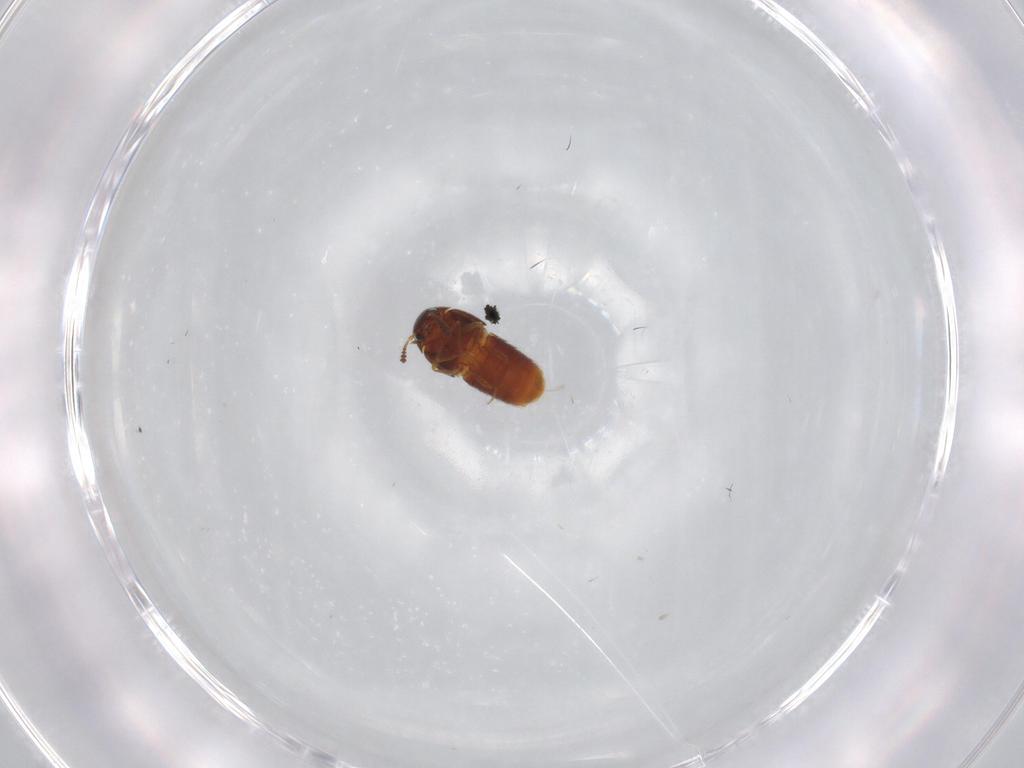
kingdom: Animalia
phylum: Arthropoda
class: Insecta
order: Coleoptera
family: Staphylinidae
